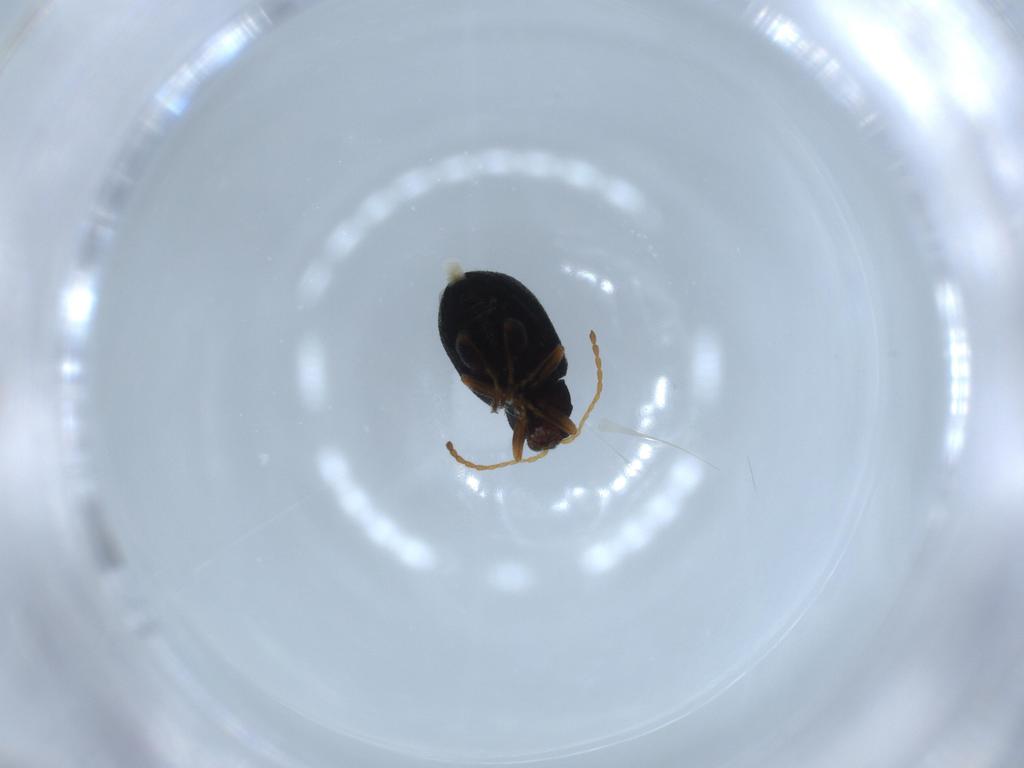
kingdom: Animalia
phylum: Arthropoda
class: Insecta
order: Coleoptera
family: Chrysomelidae
